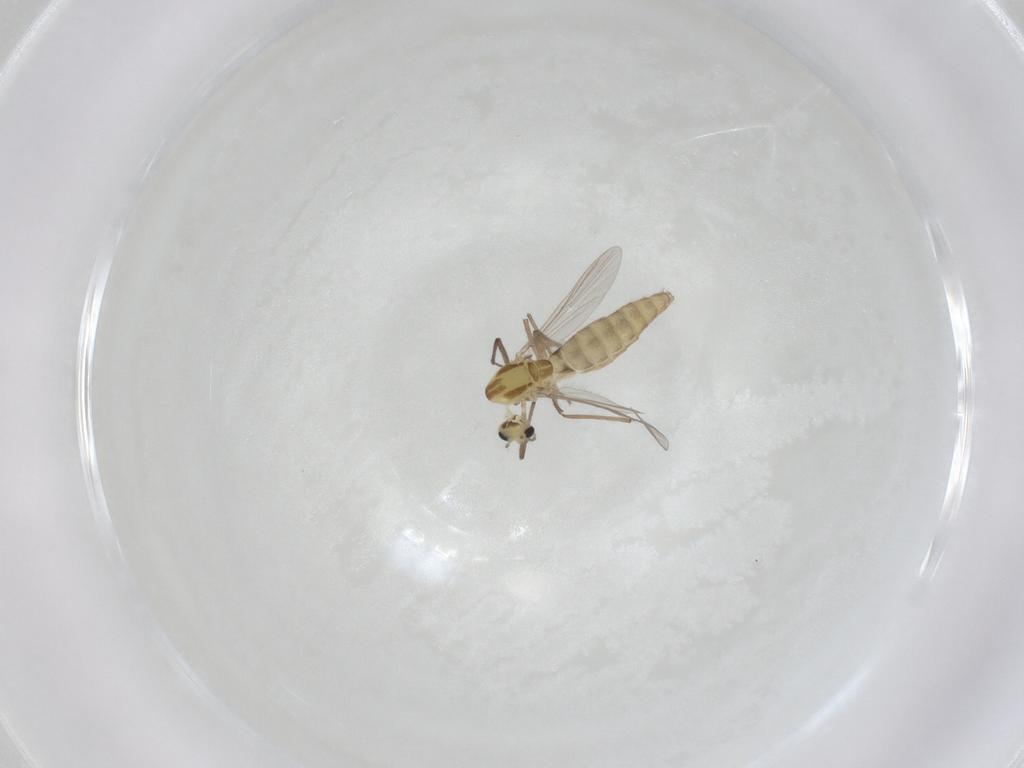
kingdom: Animalia
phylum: Arthropoda
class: Insecta
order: Diptera
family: Chironomidae
